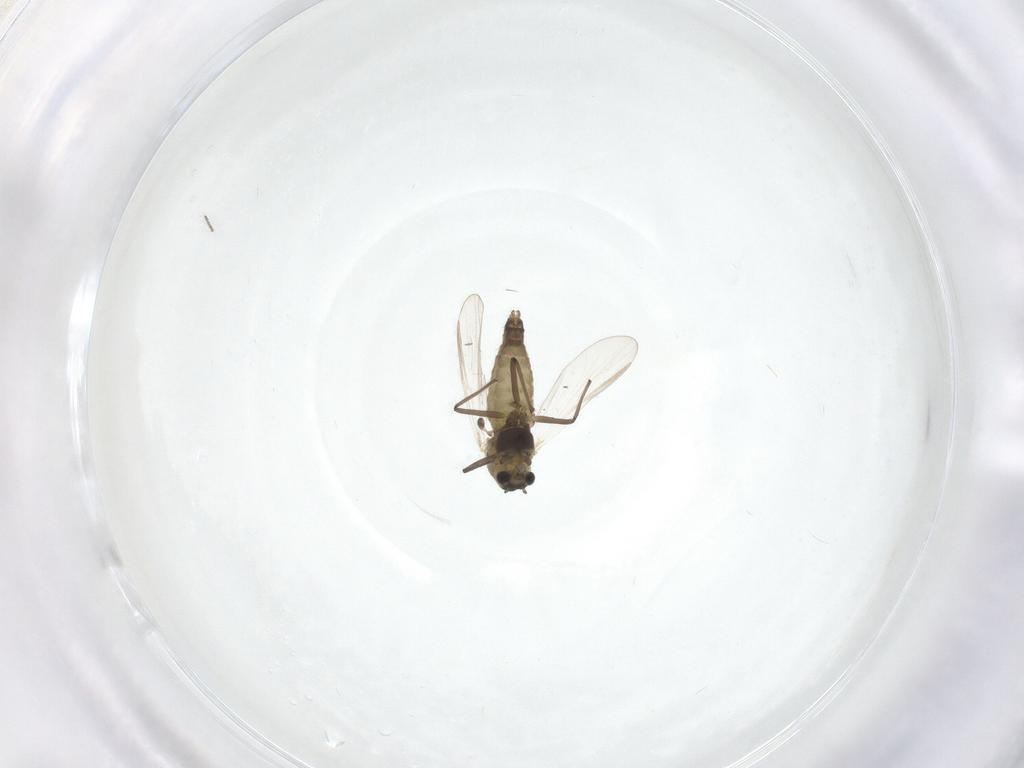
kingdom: Animalia
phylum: Arthropoda
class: Insecta
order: Diptera
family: Chironomidae
